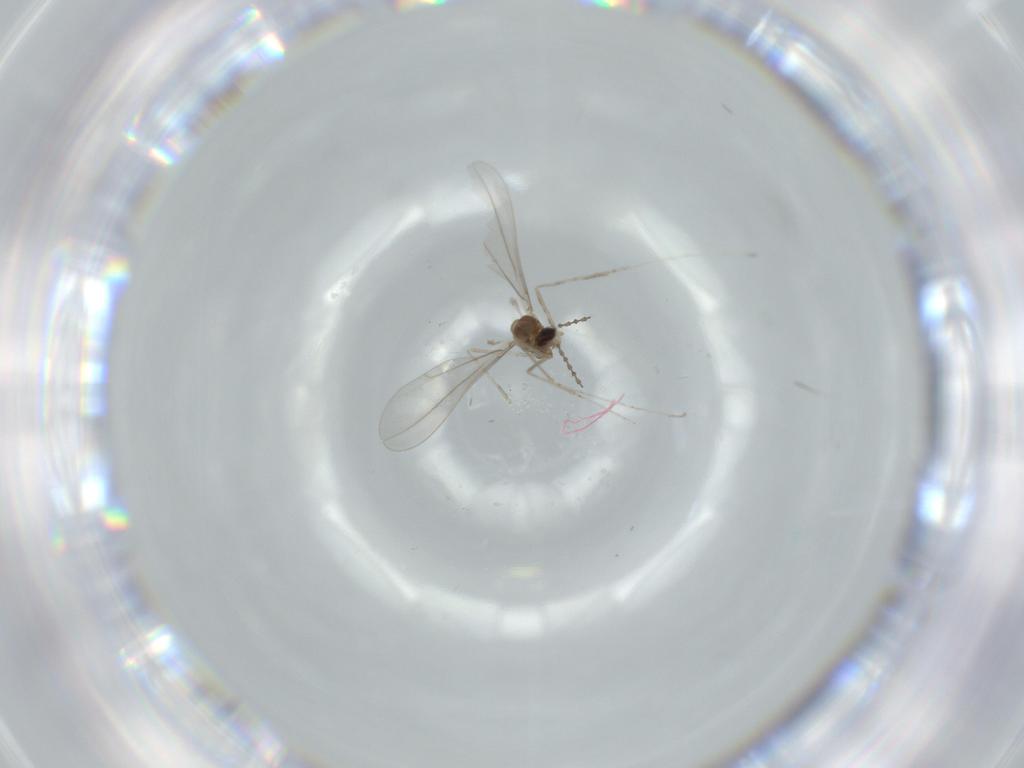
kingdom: Animalia
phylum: Arthropoda
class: Insecta
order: Diptera
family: Cecidomyiidae
